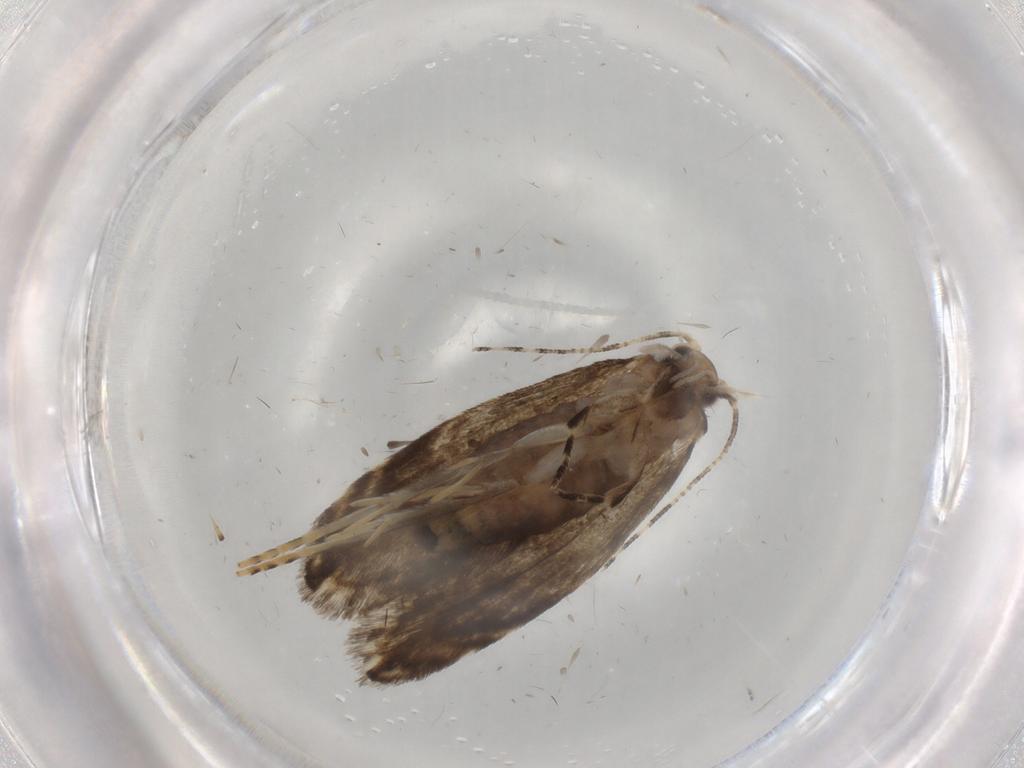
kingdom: Animalia
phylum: Arthropoda
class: Insecta
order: Lepidoptera
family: Tineidae
